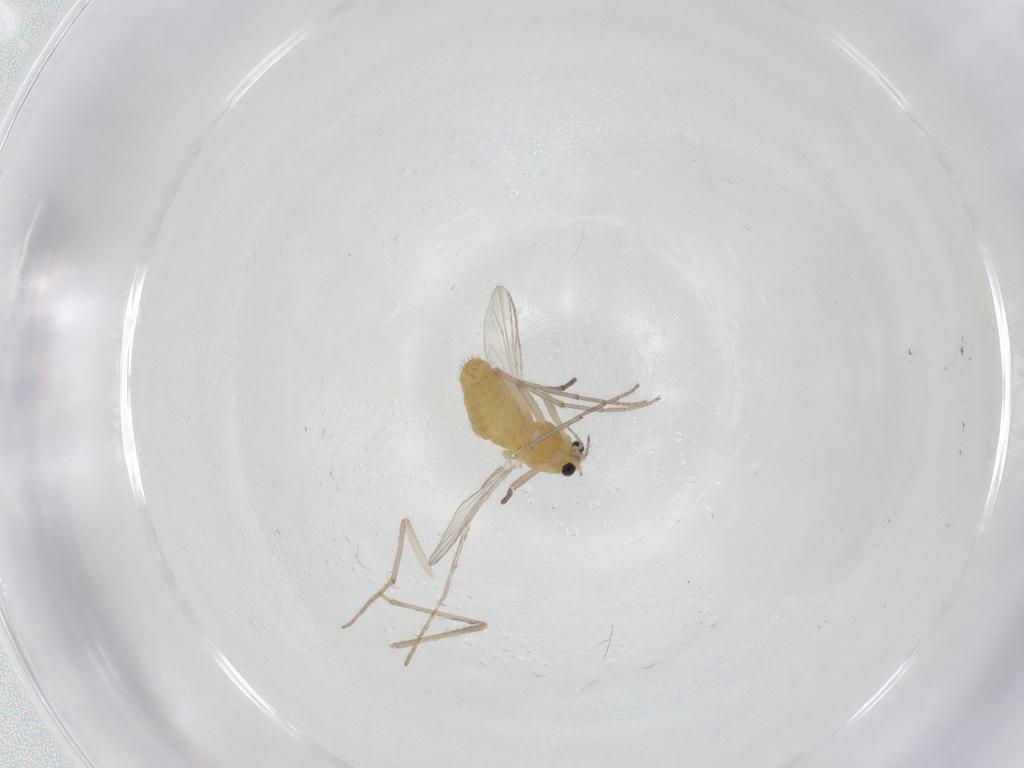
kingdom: Animalia
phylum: Arthropoda
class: Insecta
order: Diptera
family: Chironomidae
